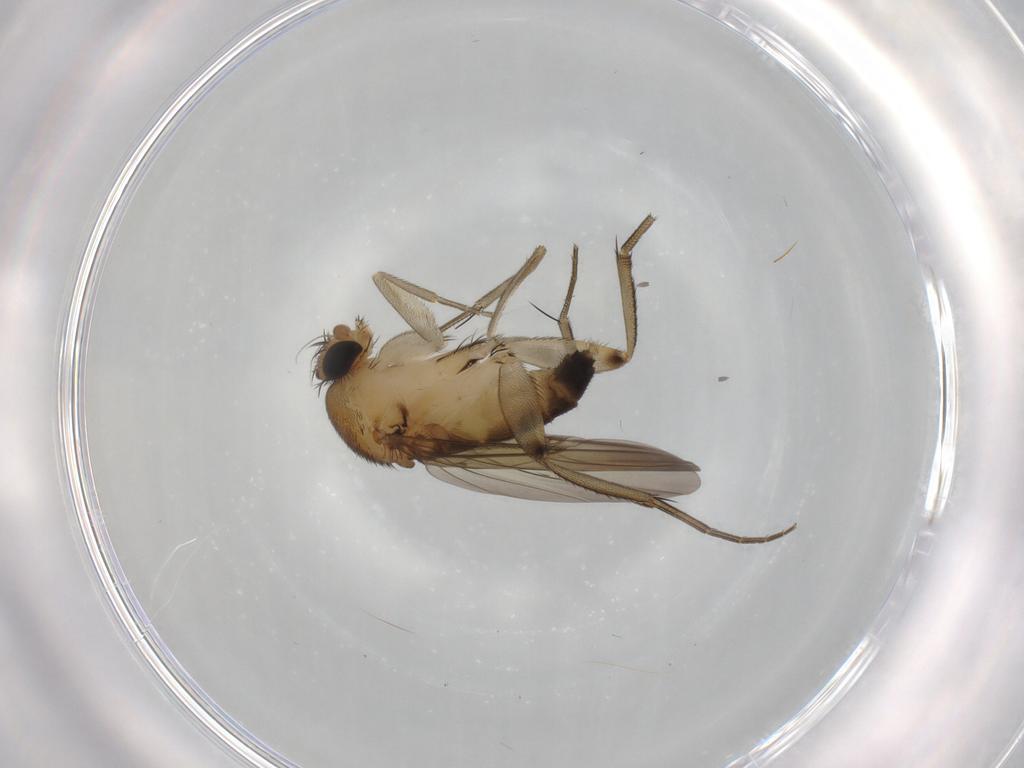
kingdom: Animalia
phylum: Arthropoda
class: Insecta
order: Diptera
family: Phoridae
